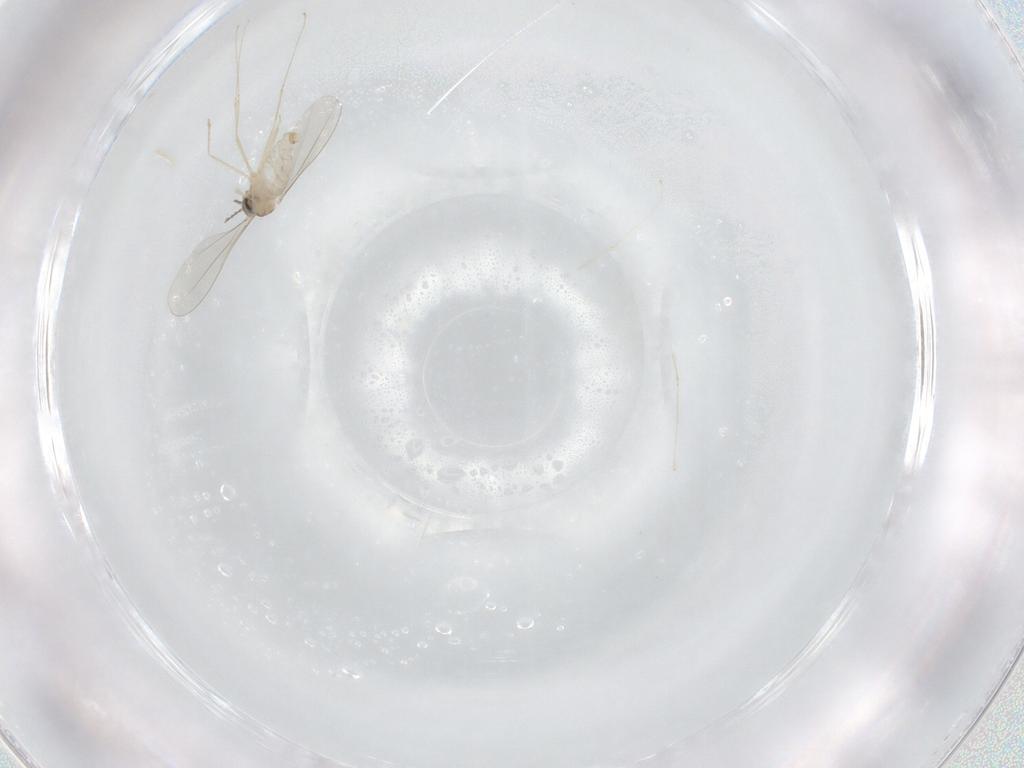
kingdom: Animalia
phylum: Arthropoda
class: Insecta
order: Diptera
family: Cecidomyiidae
